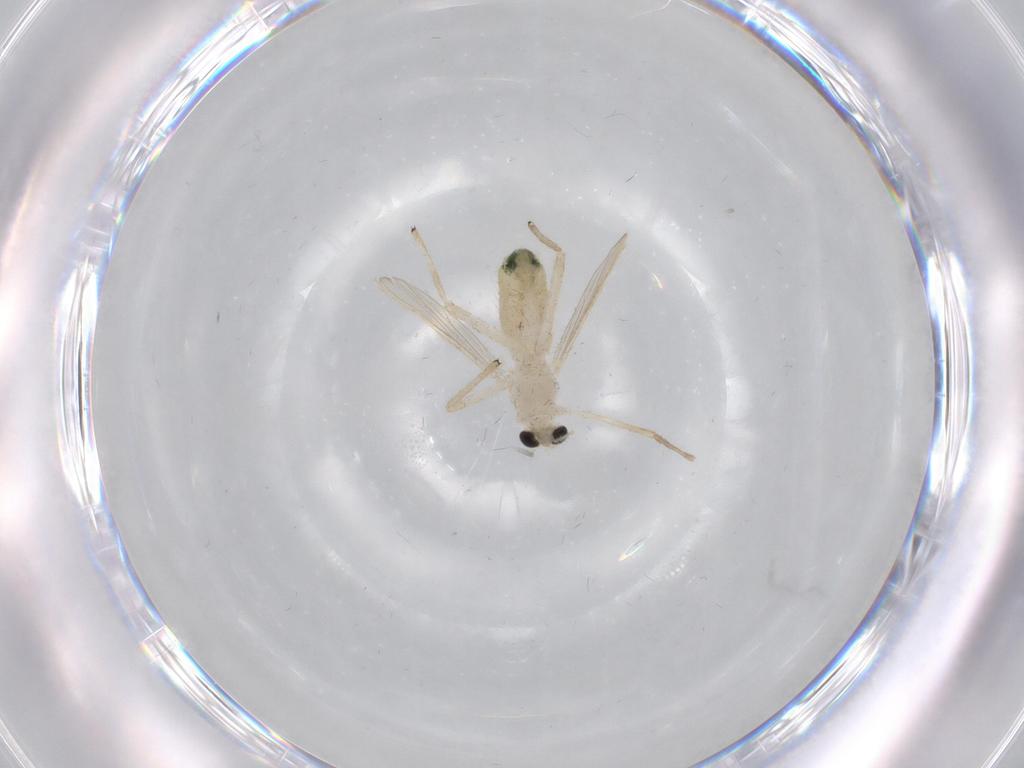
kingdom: Animalia
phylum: Arthropoda
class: Insecta
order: Diptera
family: Chironomidae
